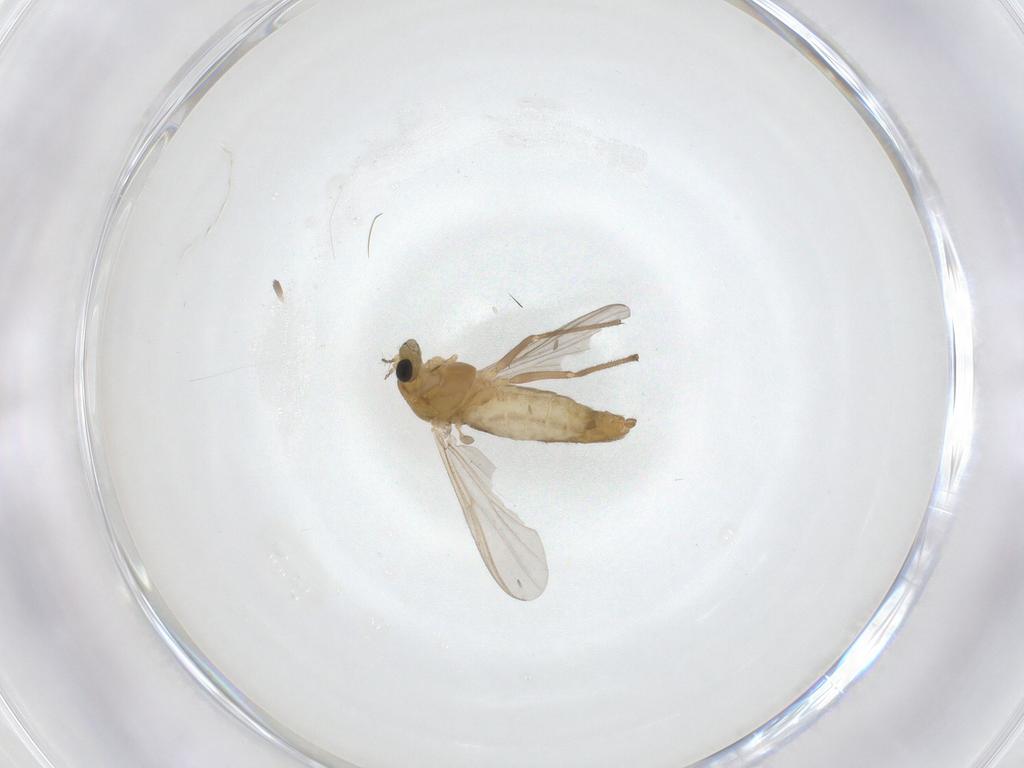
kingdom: Animalia
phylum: Arthropoda
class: Insecta
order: Diptera
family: Chironomidae
